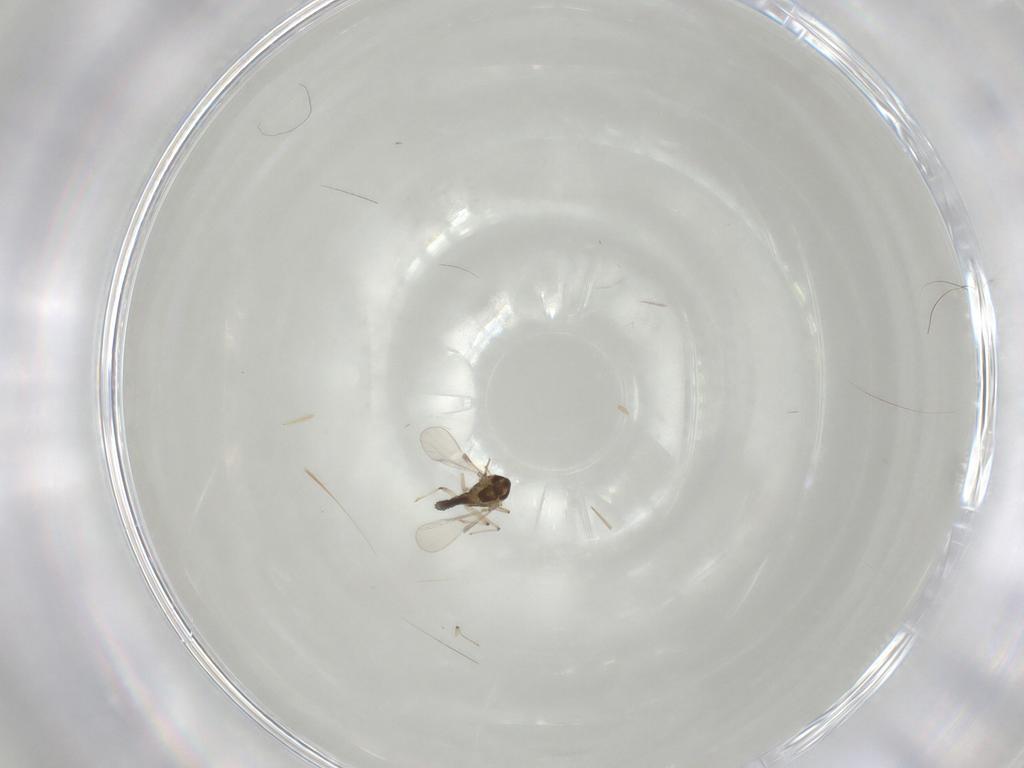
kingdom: Animalia
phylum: Arthropoda
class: Insecta
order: Diptera
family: Chironomidae
